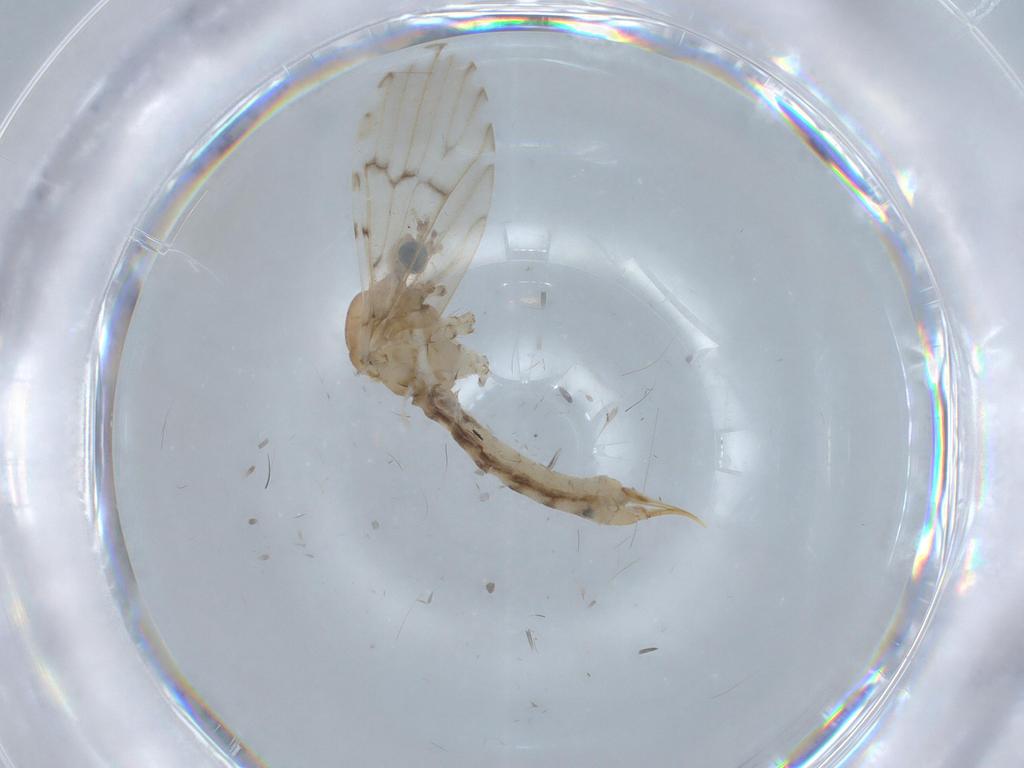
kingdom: Animalia
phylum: Arthropoda
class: Insecta
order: Diptera
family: Limoniidae
